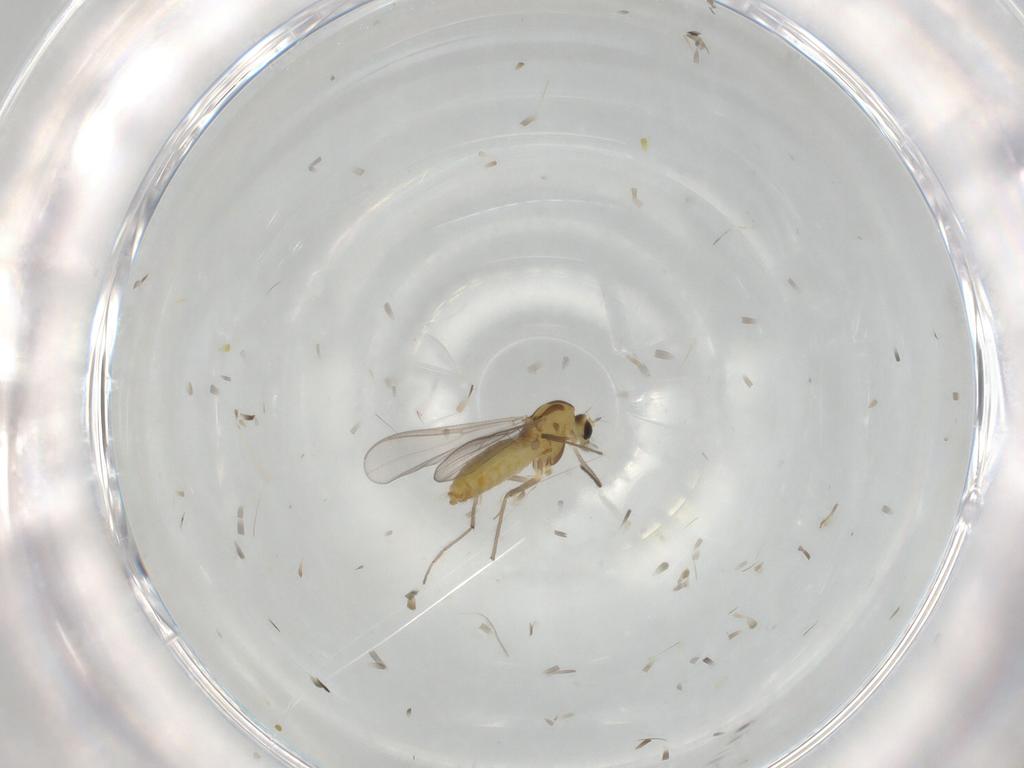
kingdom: Animalia
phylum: Arthropoda
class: Insecta
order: Diptera
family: Chironomidae
